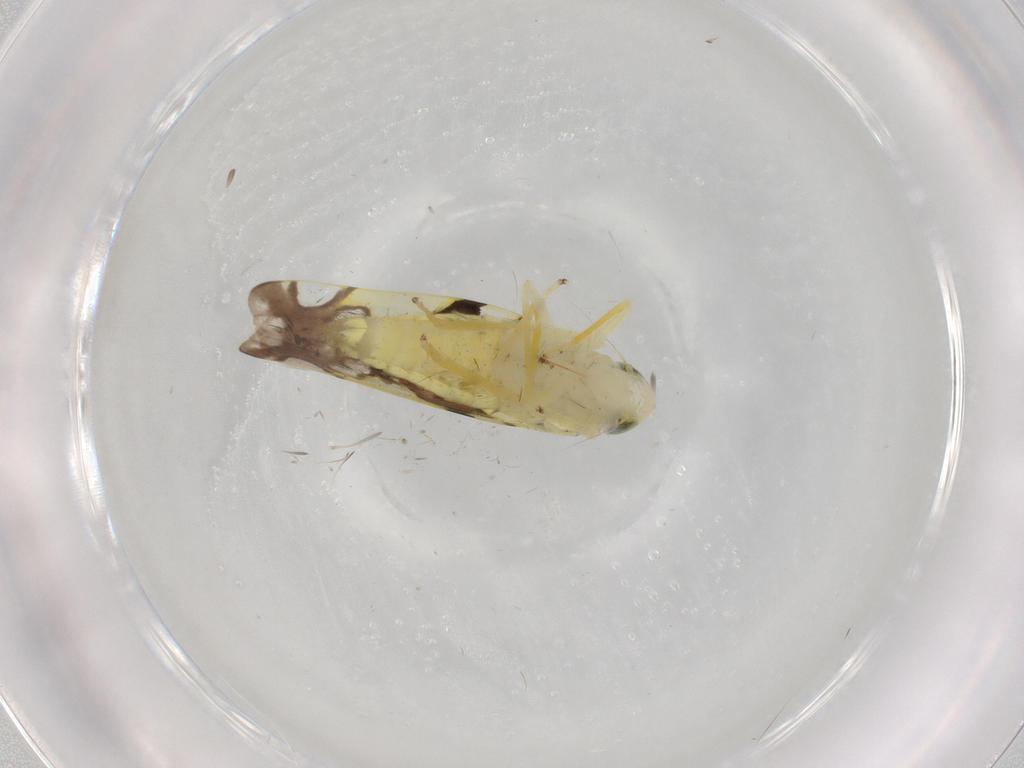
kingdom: Animalia
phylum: Arthropoda
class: Insecta
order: Hemiptera
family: Cicadellidae
